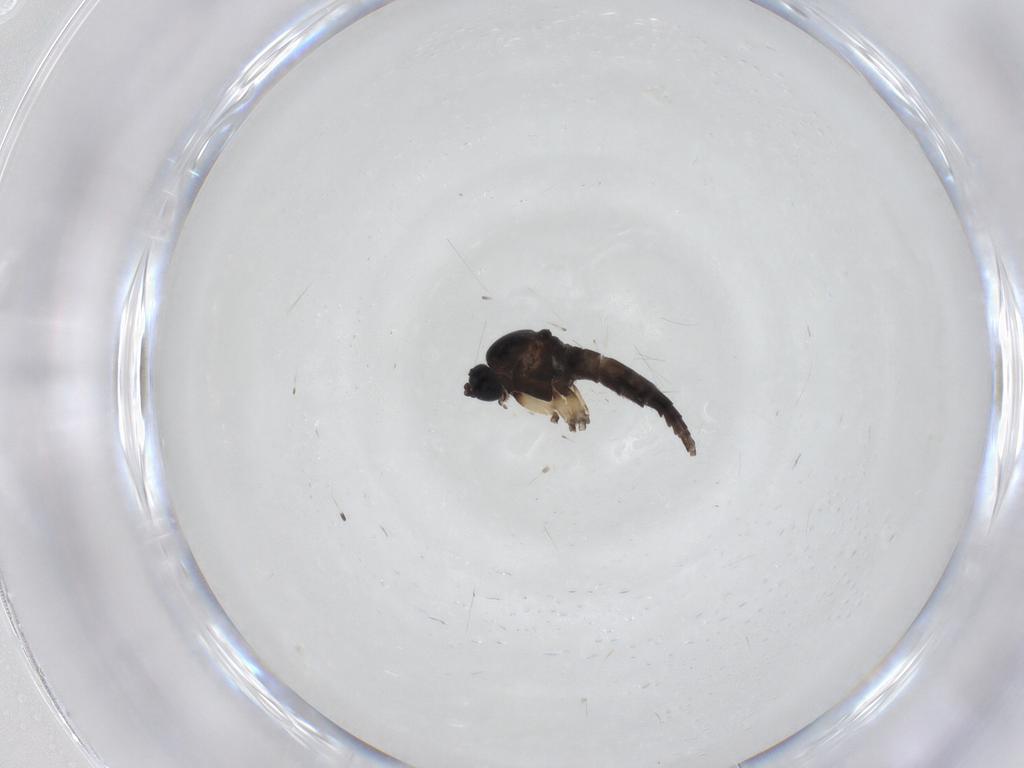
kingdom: Animalia
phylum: Arthropoda
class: Insecta
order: Diptera
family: Sciaridae
